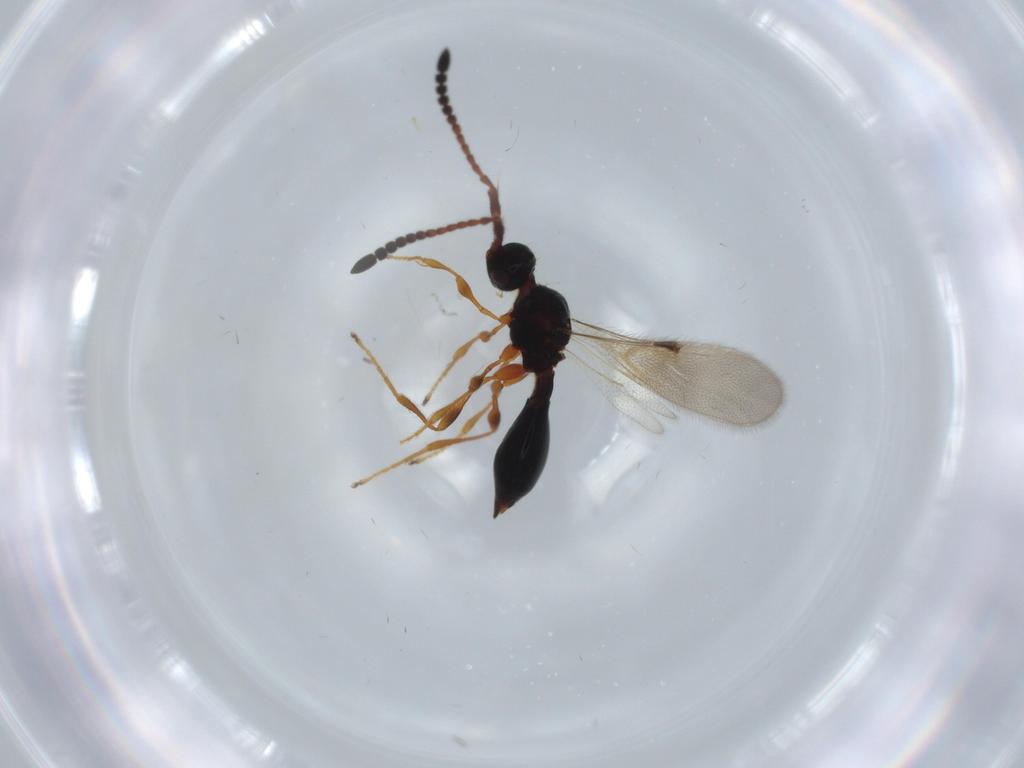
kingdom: Animalia
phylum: Arthropoda
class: Insecta
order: Hymenoptera
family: Diapriidae
